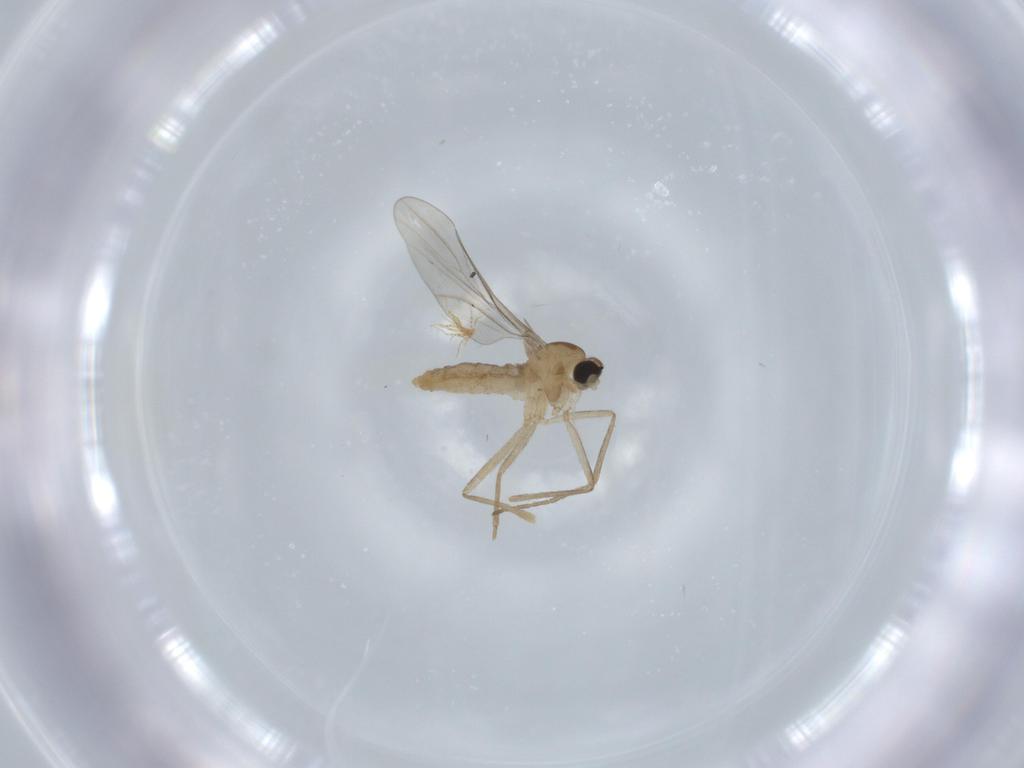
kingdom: Animalia
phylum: Arthropoda
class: Insecta
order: Diptera
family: Cecidomyiidae
